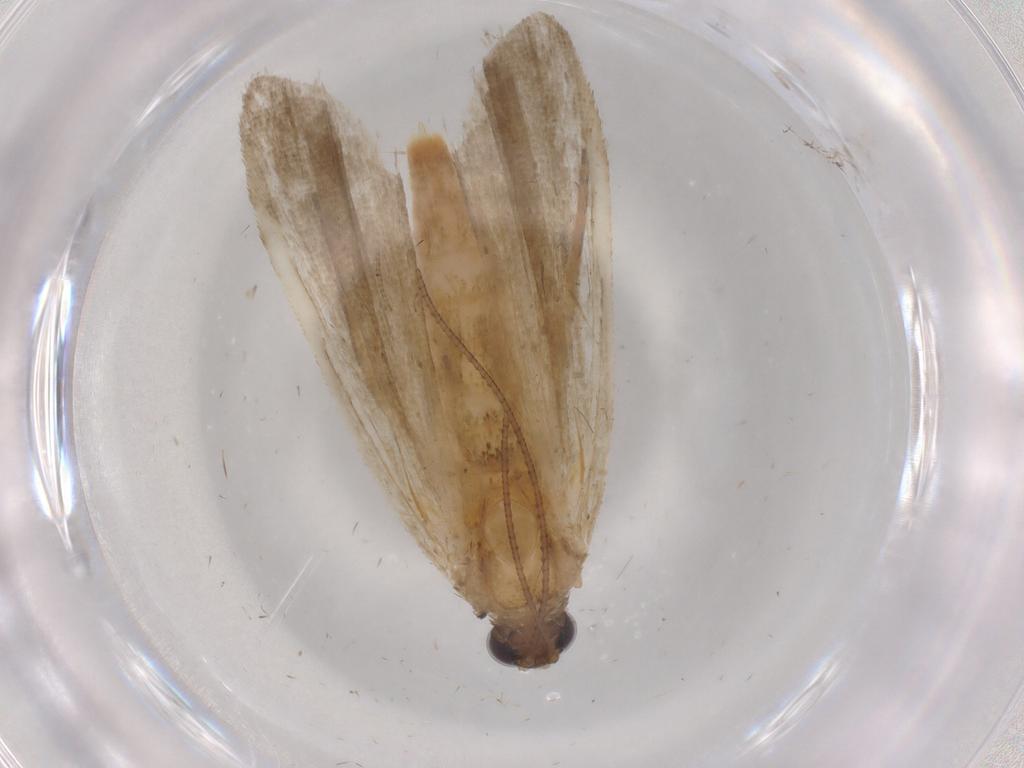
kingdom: Animalia
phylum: Arthropoda
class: Insecta
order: Lepidoptera
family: Noctuidae
